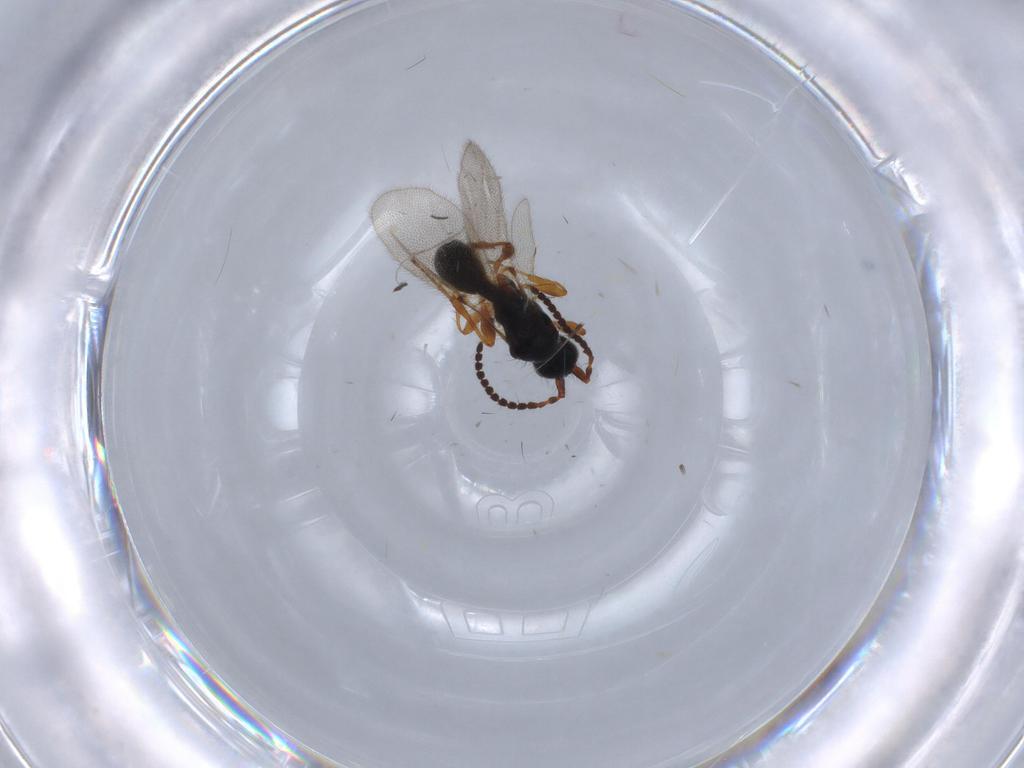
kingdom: Animalia
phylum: Arthropoda
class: Insecta
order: Hymenoptera
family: Diapriidae
